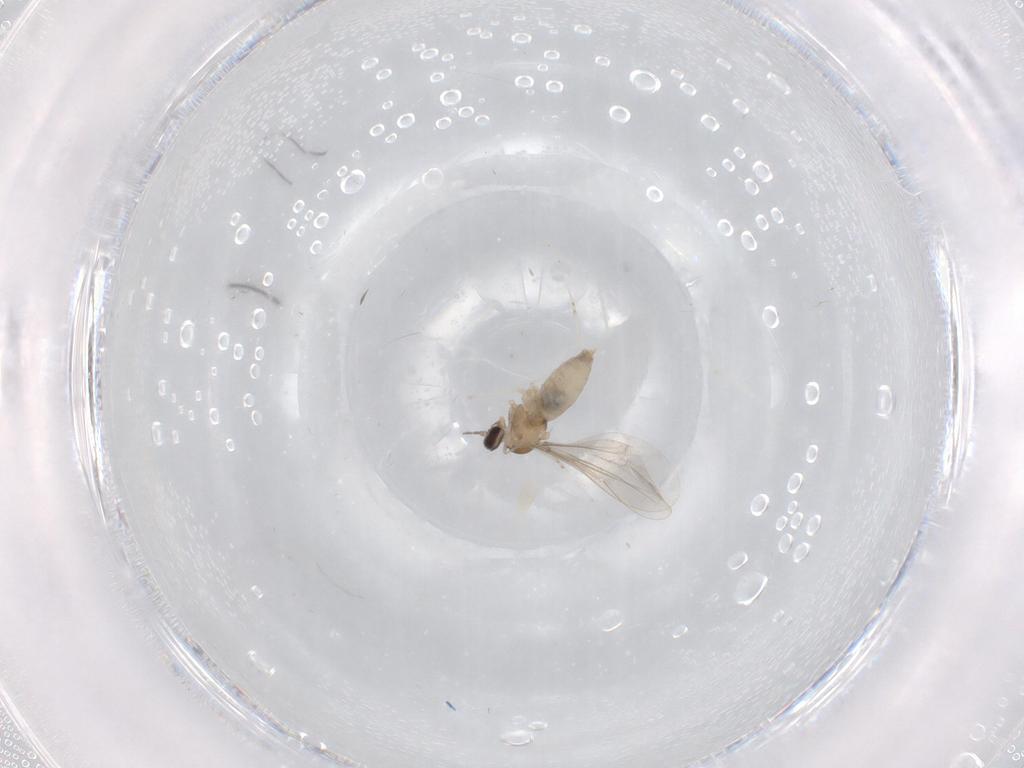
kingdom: Animalia
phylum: Arthropoda
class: Insecta
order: Diptera
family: Cecidomyiidae
